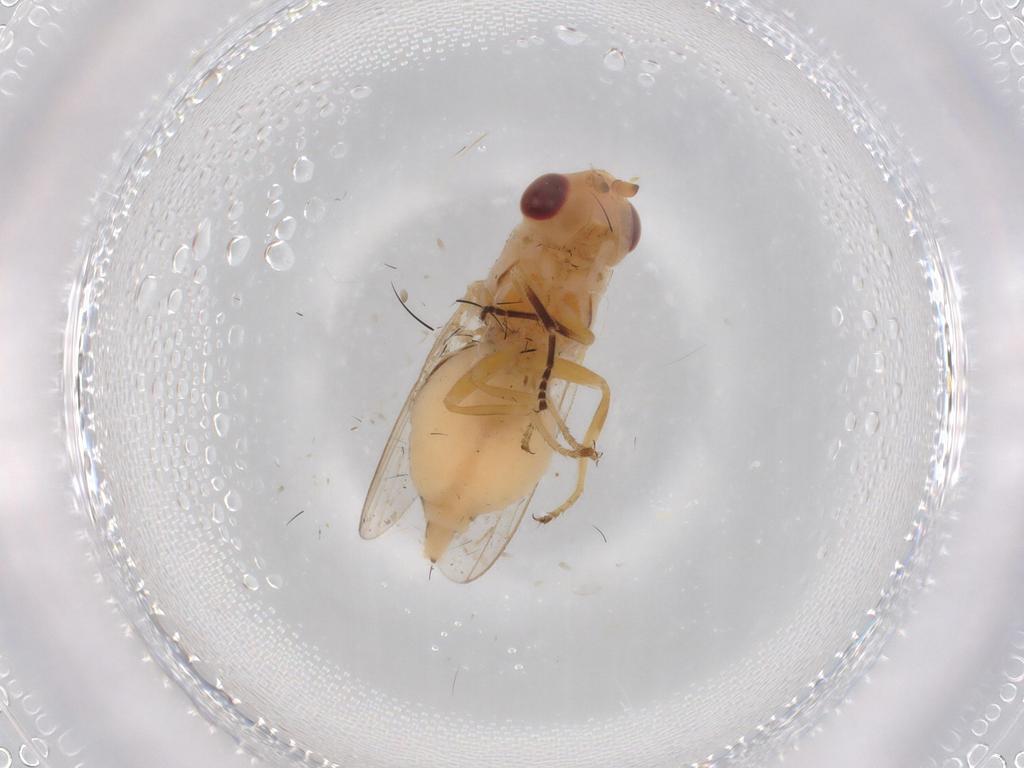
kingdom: Animalia
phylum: Arthropoda
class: Insecta
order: Diptera
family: Chloropidae
